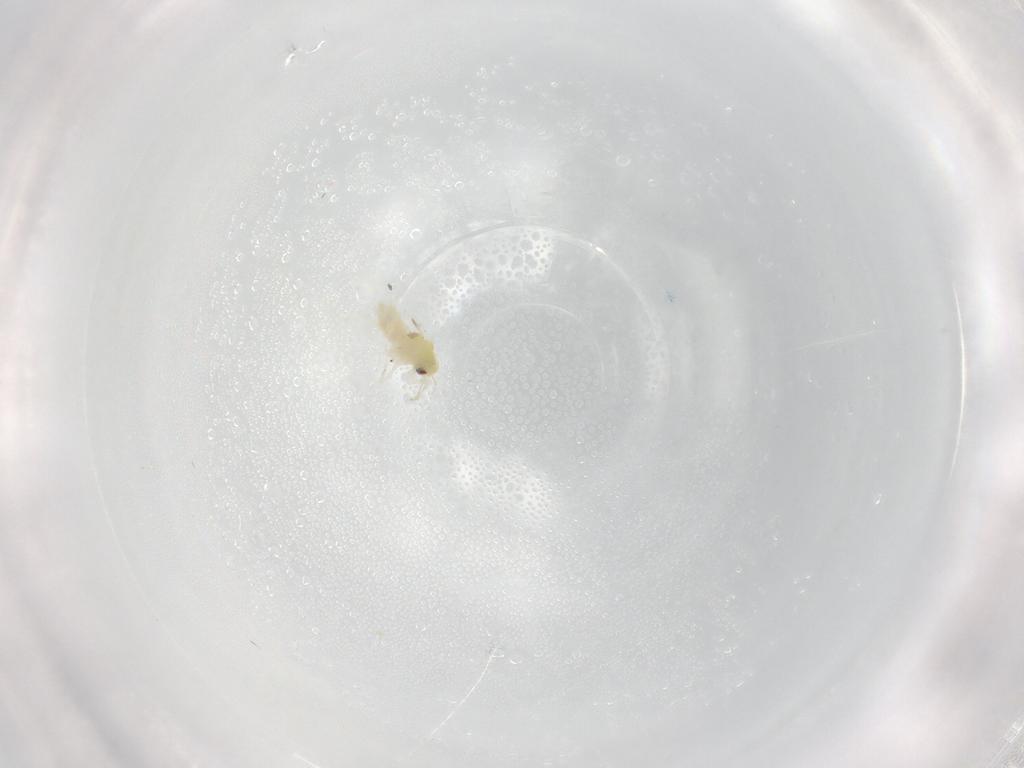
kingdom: Animalia
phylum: Arthropoda
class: Insecta
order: Hemiptera
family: Aleyrodidae
